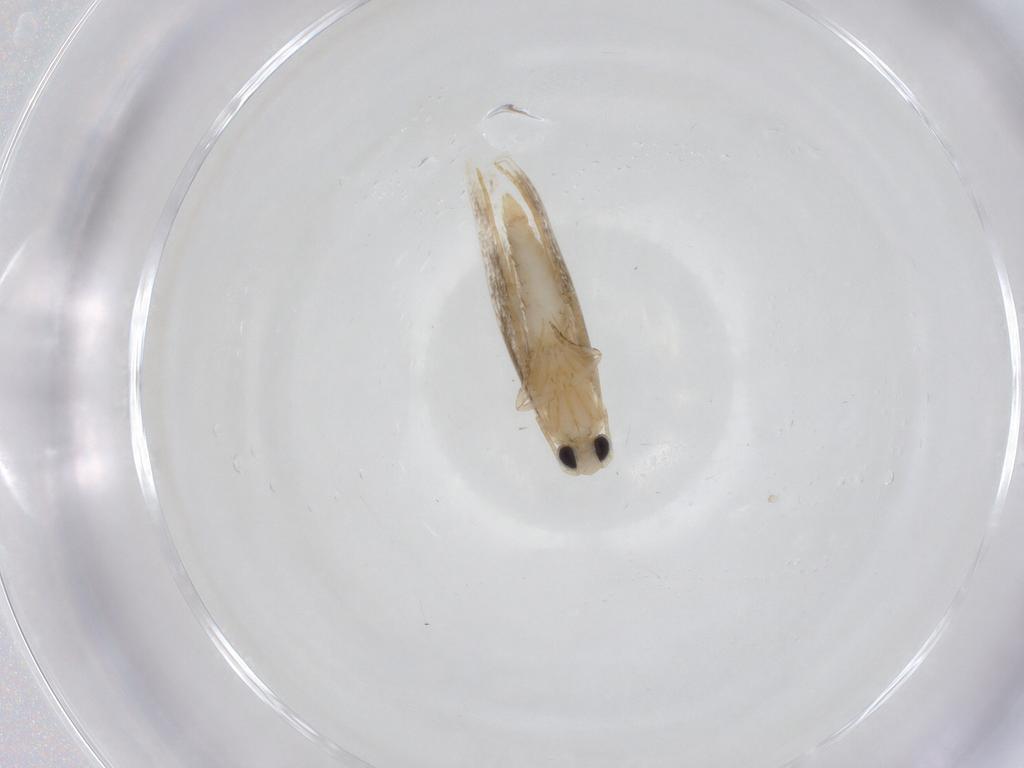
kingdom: Animalia
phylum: Arthropoda
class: Insecta
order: Lepidoptera
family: Tineidae
